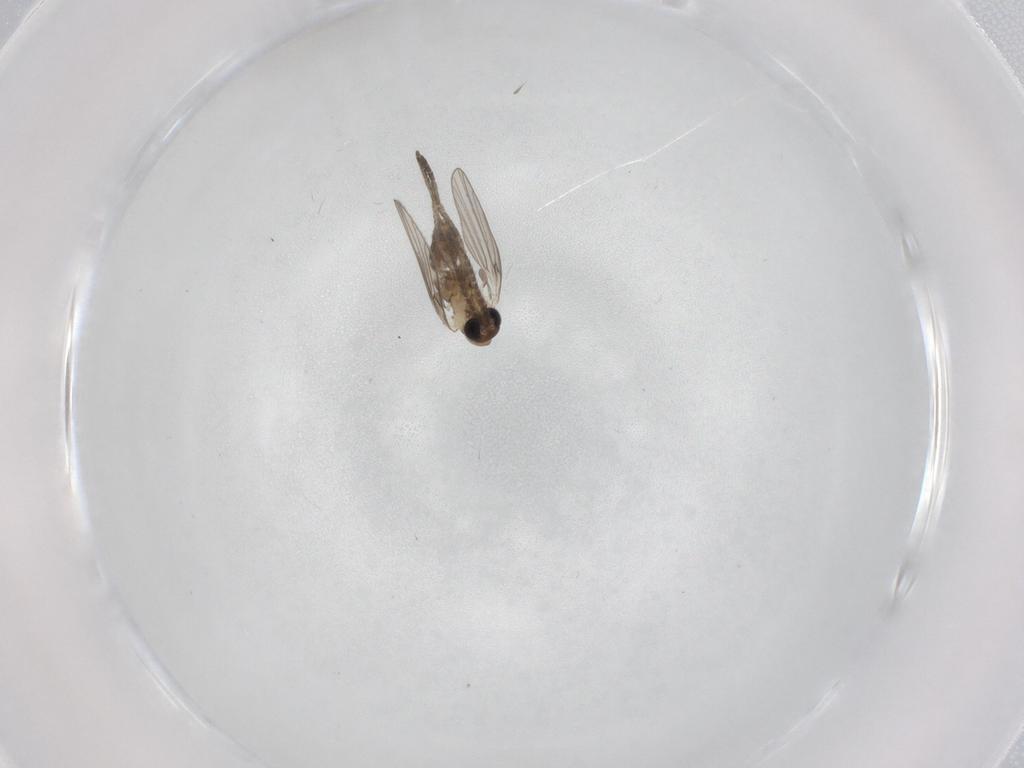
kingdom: Animalia
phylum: Arthropoda
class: Insecta
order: Diptera
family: Psychodidae
